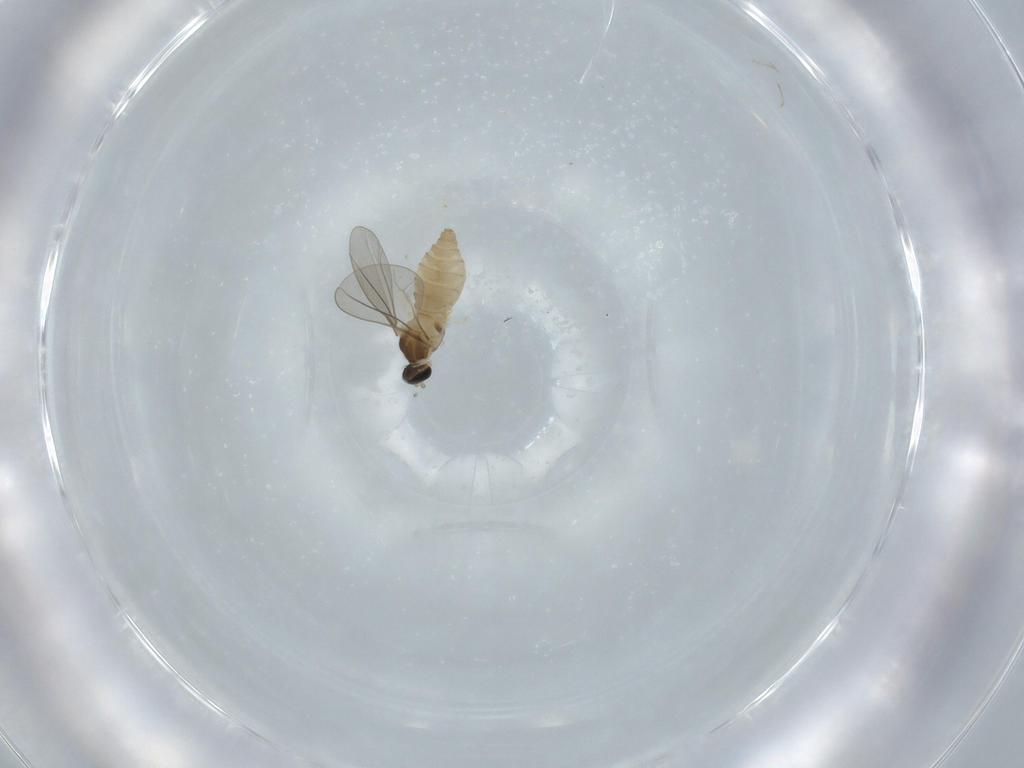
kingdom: Animalia
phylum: Arthropoda
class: Insecta
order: Diptera
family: Cecidomyiidae
